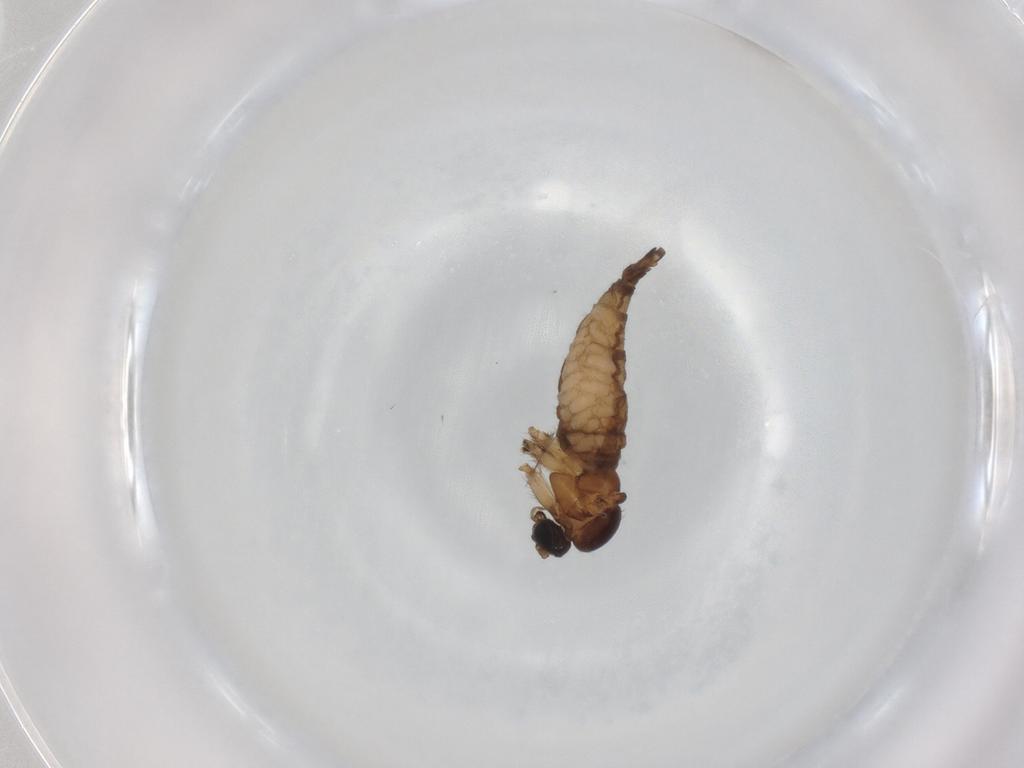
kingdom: Animalia
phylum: Arthropoda
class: Insecta
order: Diptera
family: Sciaridae
